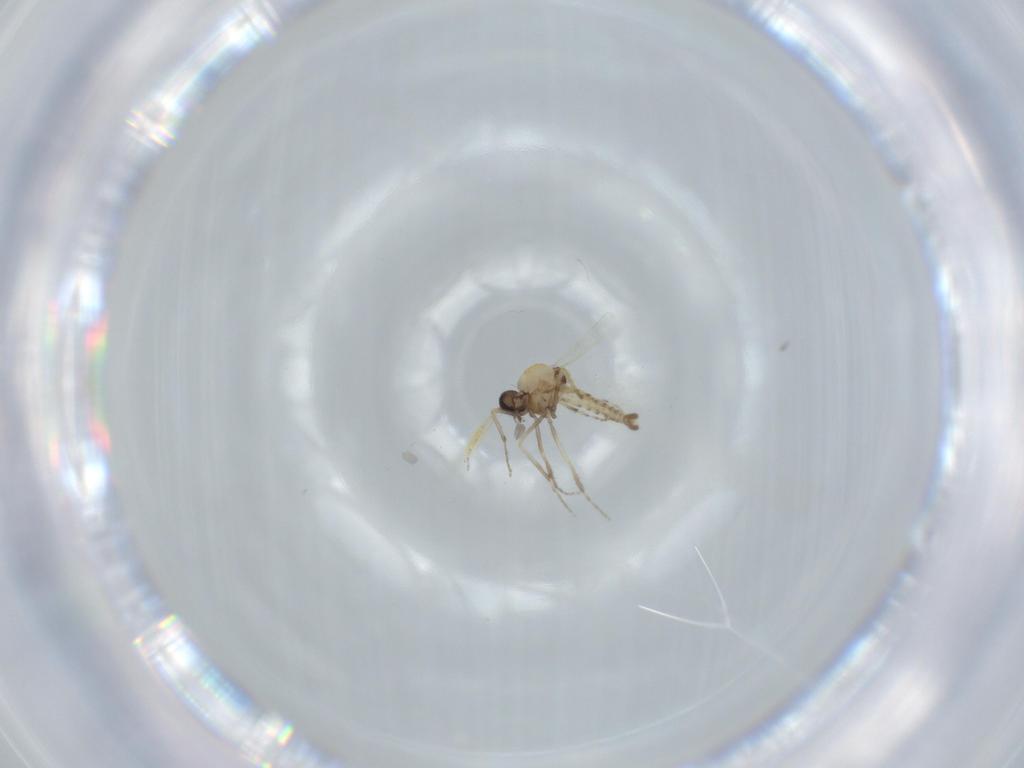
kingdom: Animalia
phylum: Arthropoda
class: Insecta
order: Diptera
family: Ceratopogonidae
